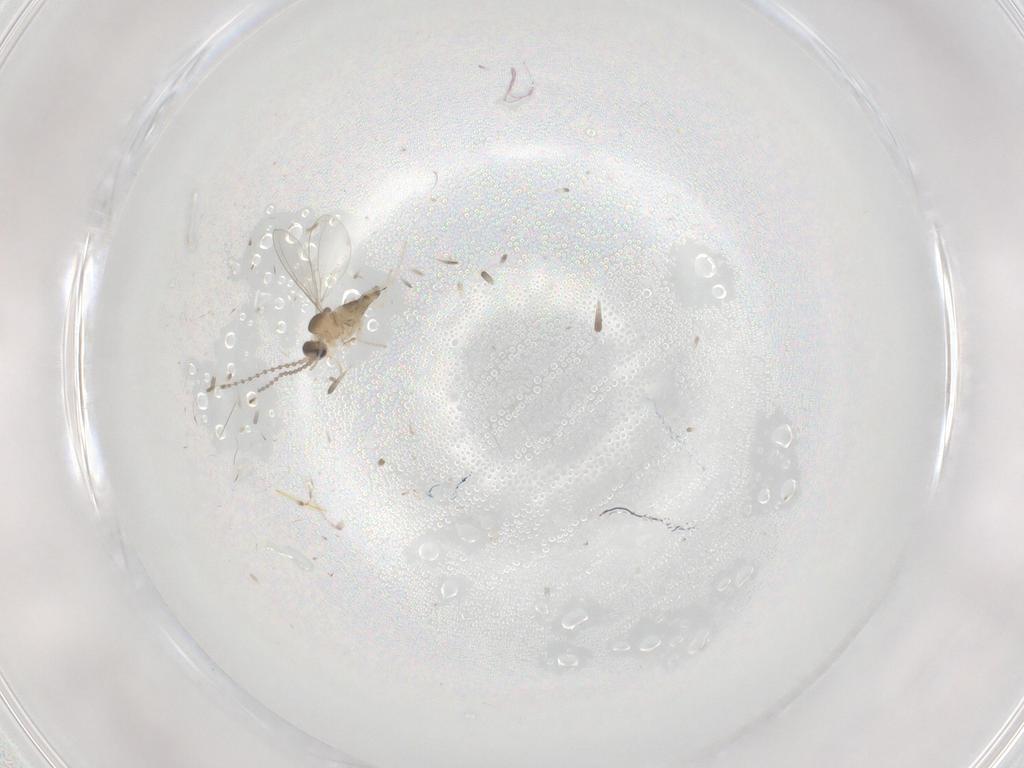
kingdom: Animalia
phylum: Arthropoda
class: Insecta
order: Diptera
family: Cecidomyiidae
